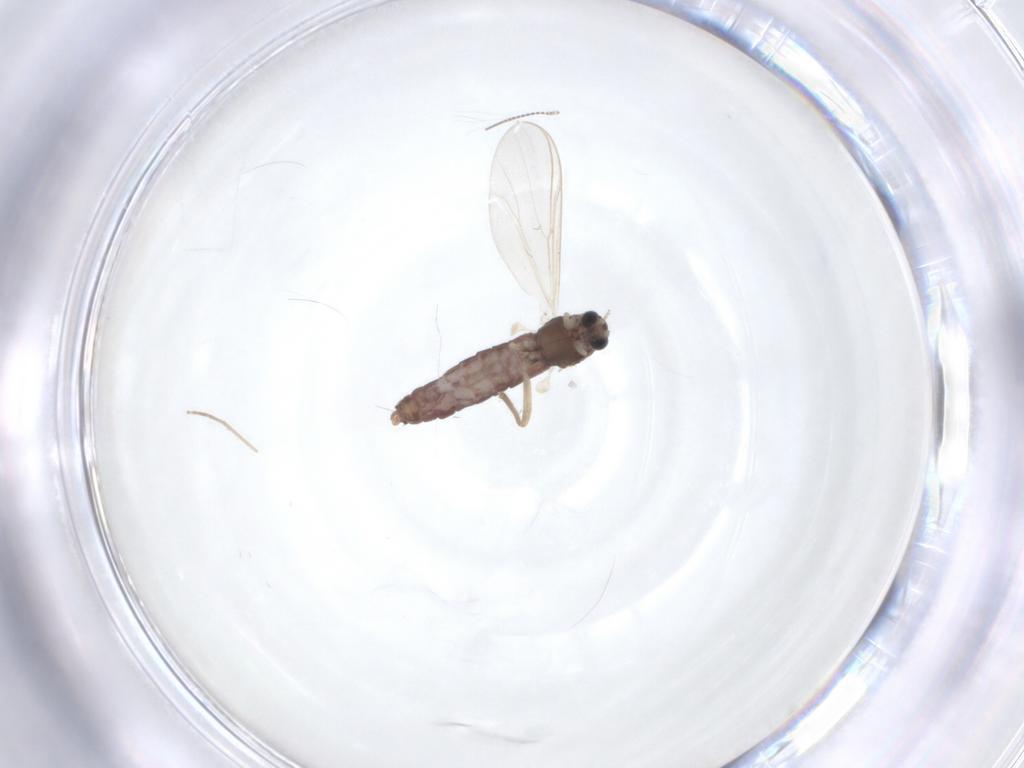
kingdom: Animalia
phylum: Arthropoda
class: Insecta
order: Diptera
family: Chironomidae
